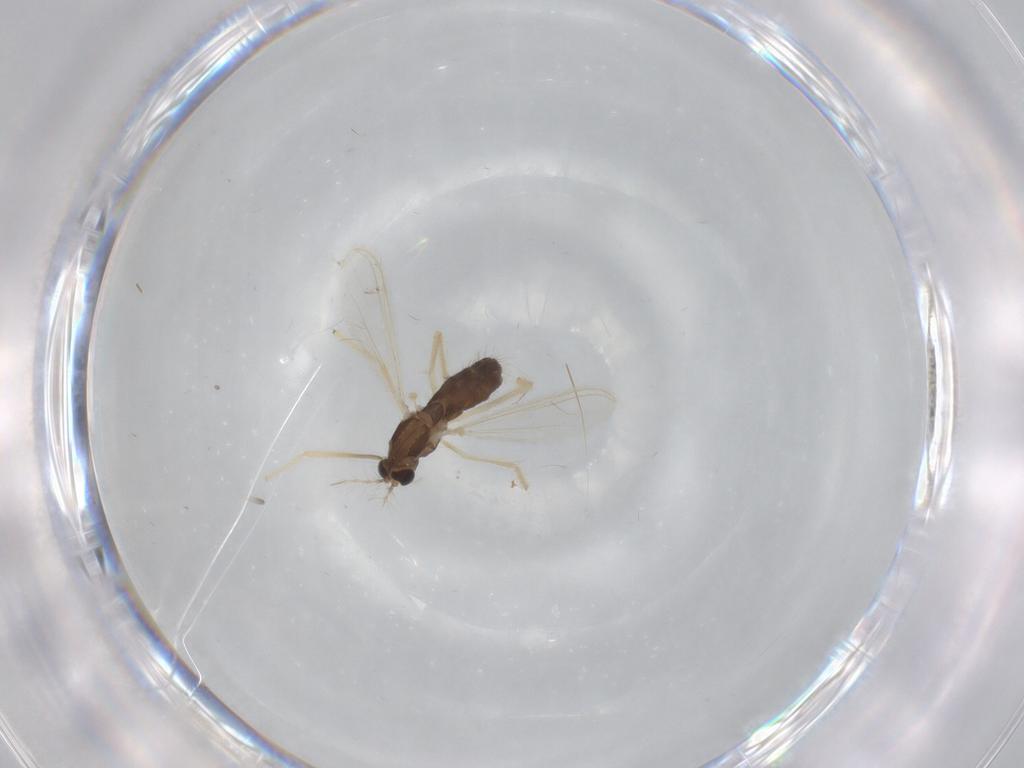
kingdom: Animalia
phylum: Arthropoda
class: Insecta
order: Diptera
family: Chironomidae
